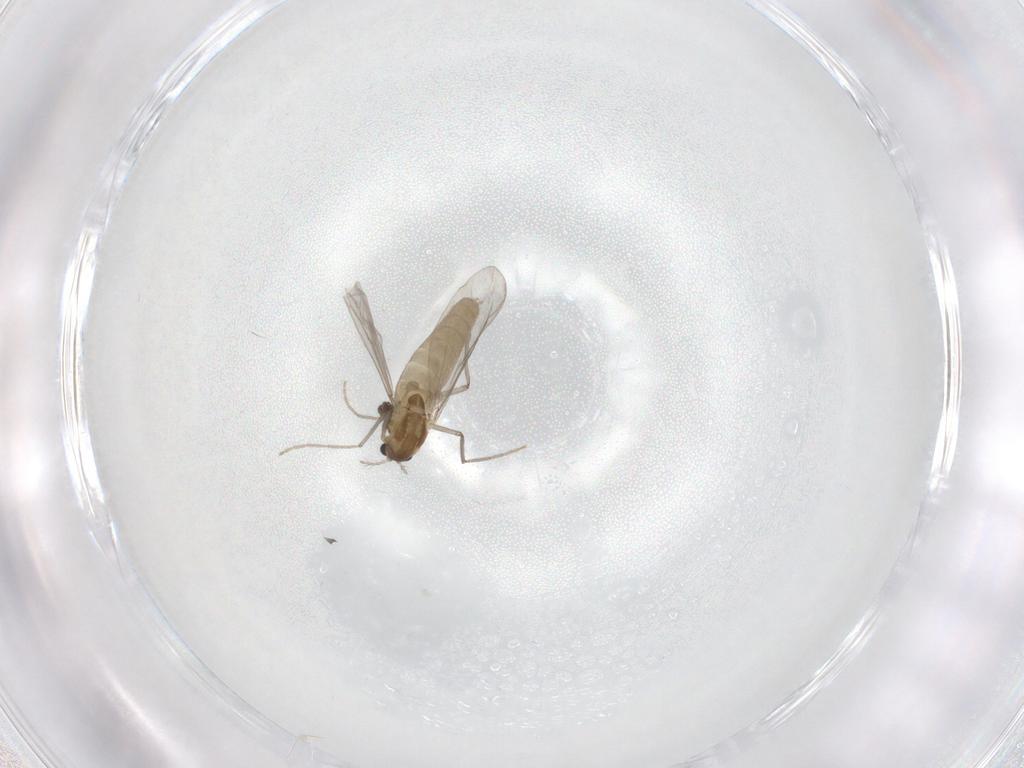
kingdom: Animalia
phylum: Arthropoda
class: Insecta
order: Diptera
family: Chironomidae
